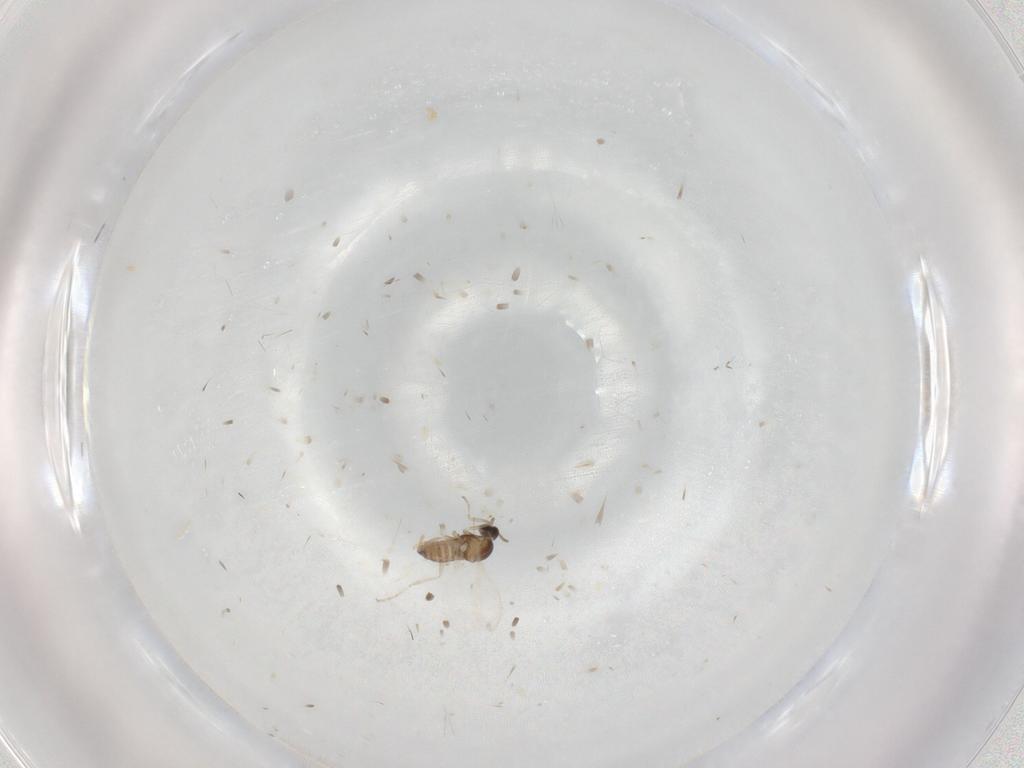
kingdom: Animalia
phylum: Arthropoda
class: Insecta
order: Diptera
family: Cecidomyiidae
